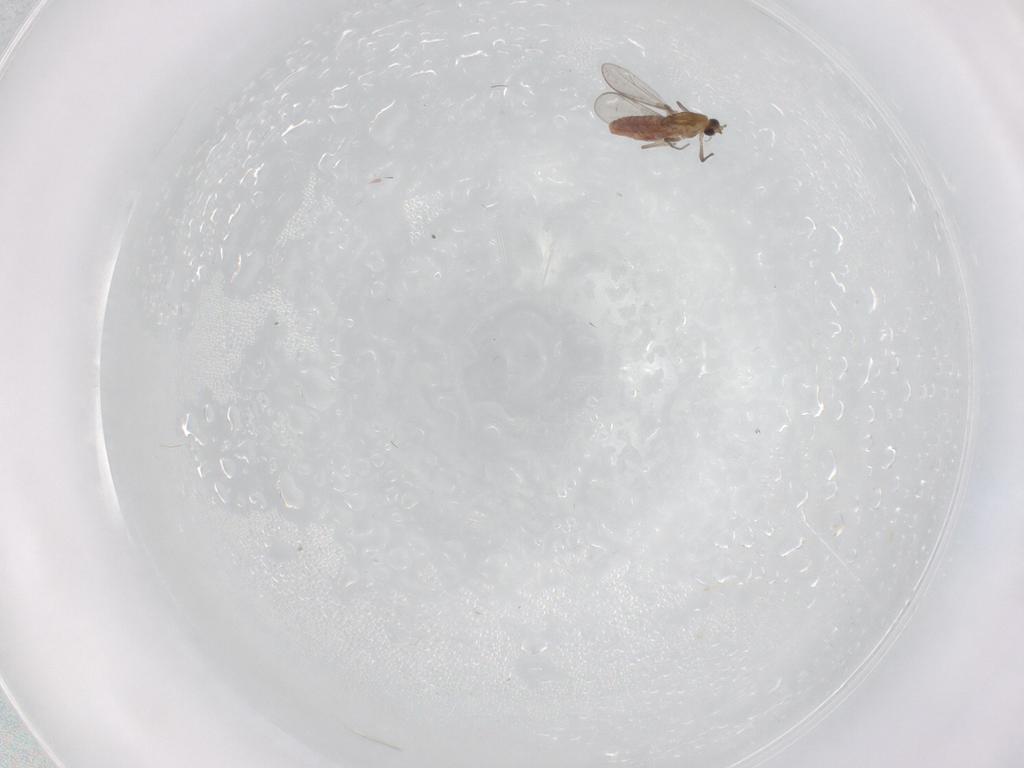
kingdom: Animalia
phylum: Arthropoda
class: Insecta
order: Diptera
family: Chironomidae
